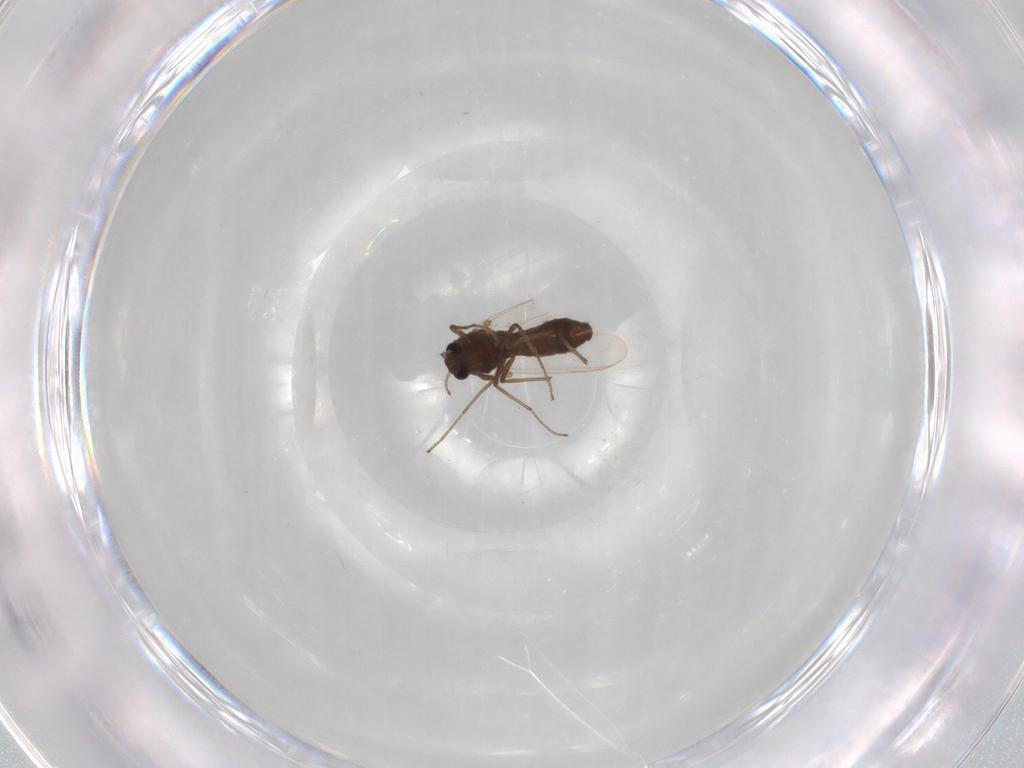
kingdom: Animalia
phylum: Arthropoda
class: Insecta
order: Diptera
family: Chironomidae
